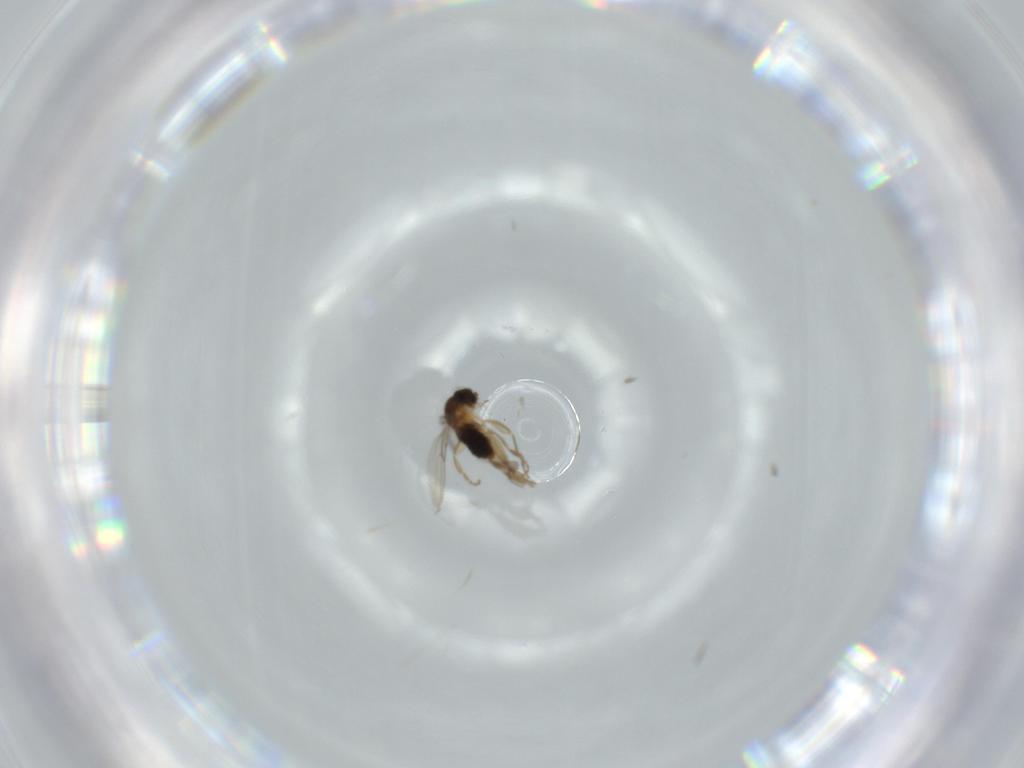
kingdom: Animalia
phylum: Arthropoda
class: Insecta
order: Diptera
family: Phoridae
